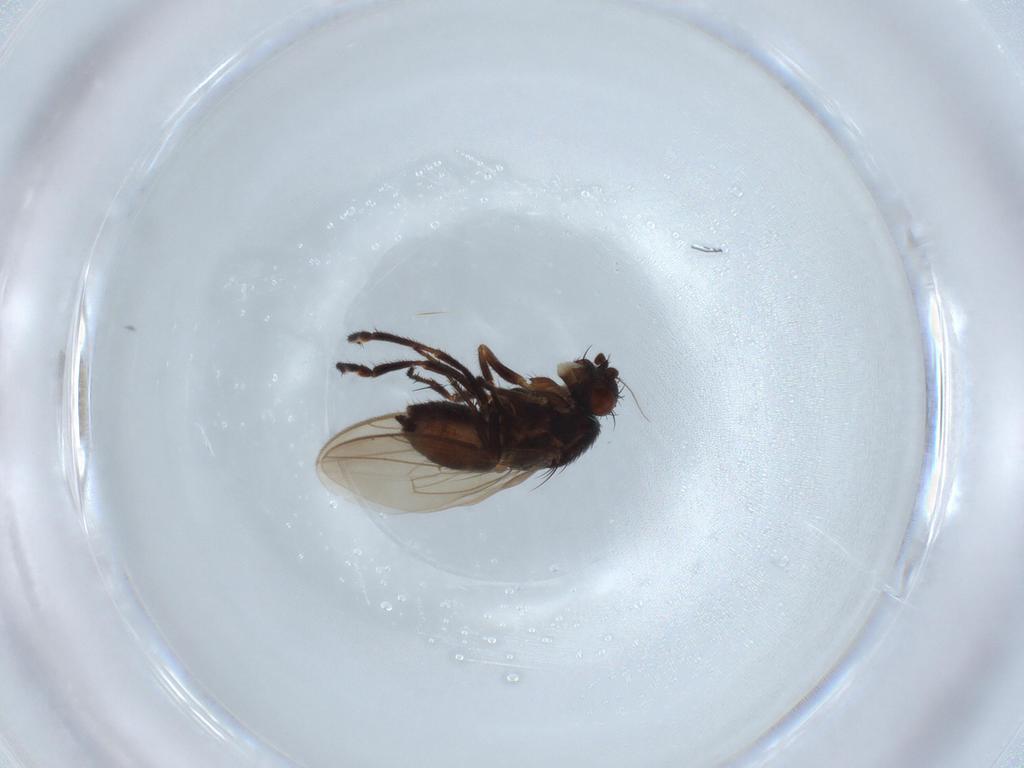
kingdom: Animalia
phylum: Arthropoda
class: Insecta
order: Diptera
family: Sphaeroceridae
